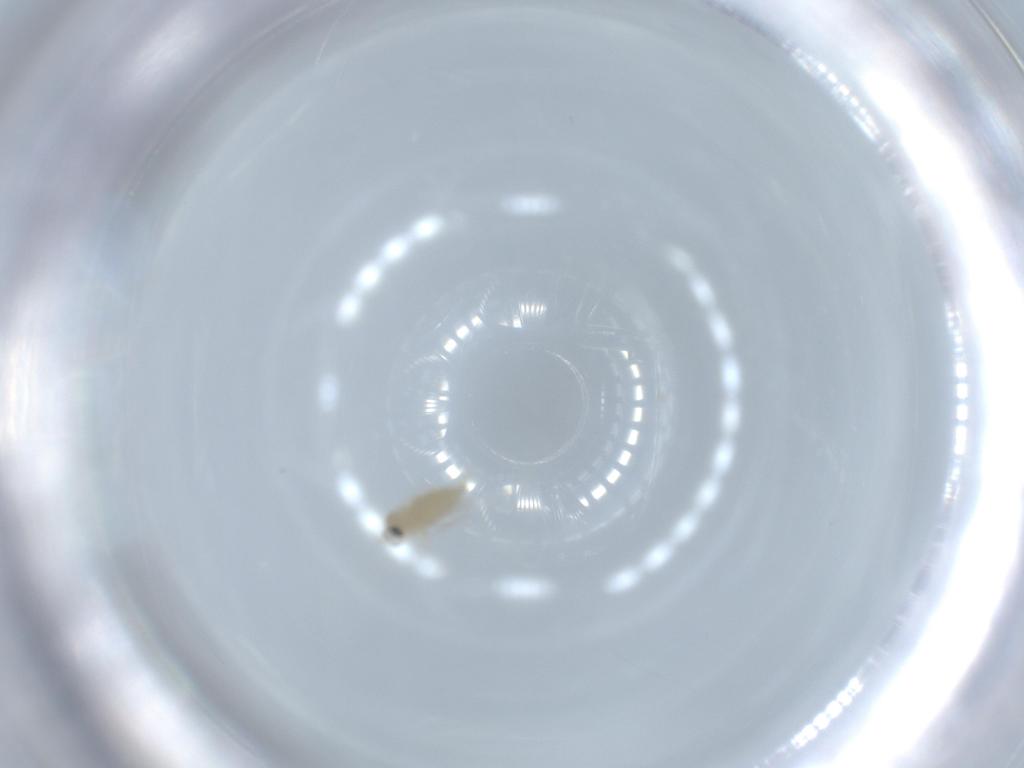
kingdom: Animalia
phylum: Arthropoda
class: Insecta
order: Diptera
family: Cecidomyiidae
